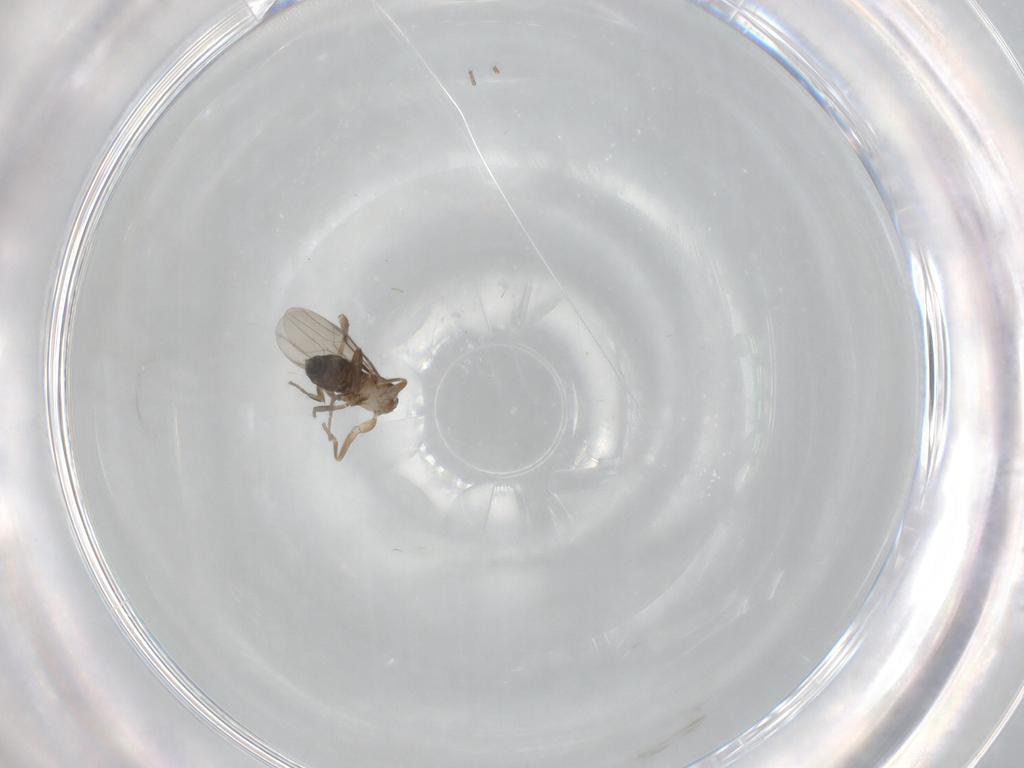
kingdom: Animalia
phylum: Arthropoda
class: Insecta
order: Diptera
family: Phoridae
